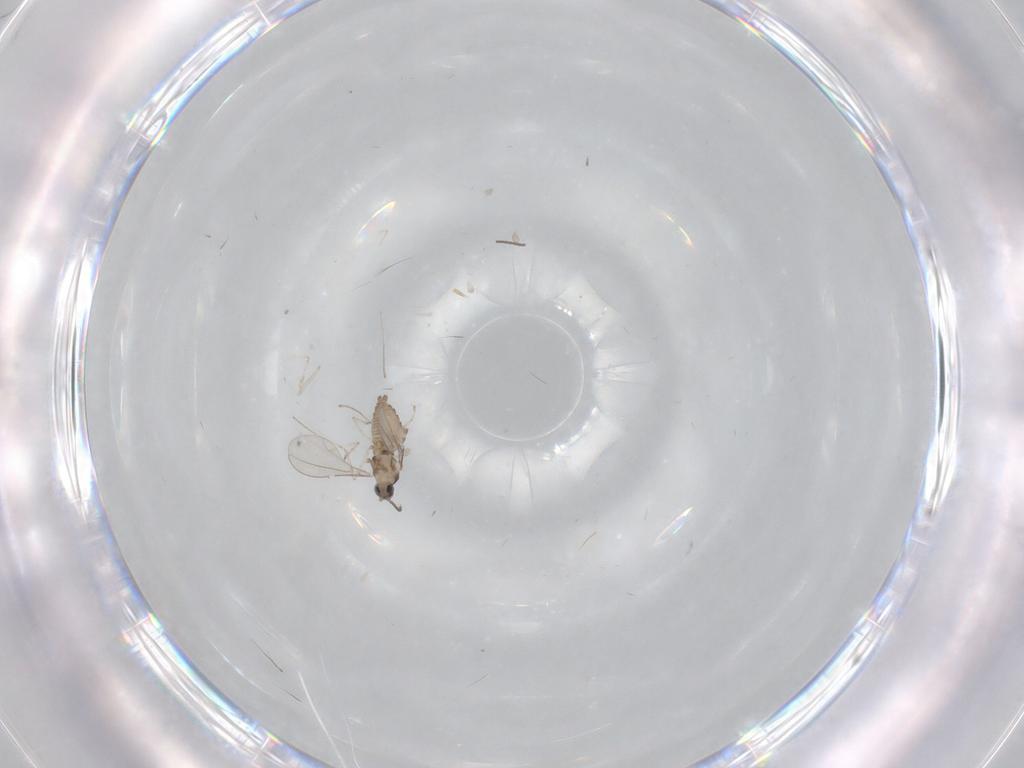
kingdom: Animalia
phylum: Arthropoda
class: Insecta
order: Diptera
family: Cecidomyiidae
